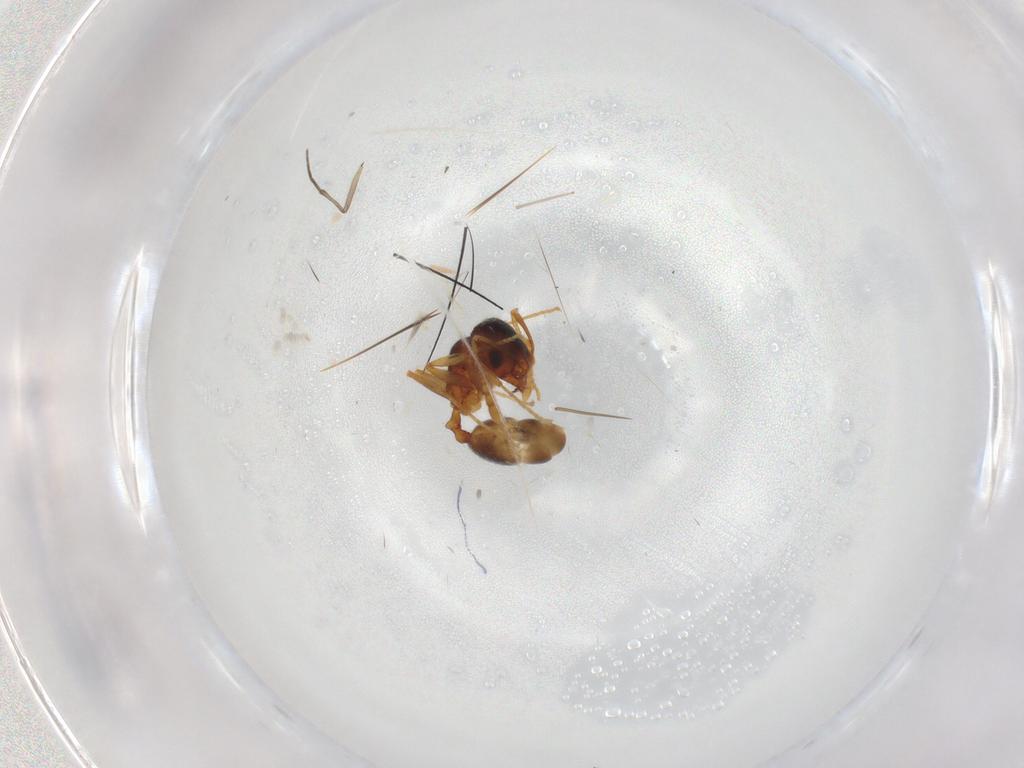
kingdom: Animalia
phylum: Arthropoda
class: Insecta
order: Hymenoptera
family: Formicidae
